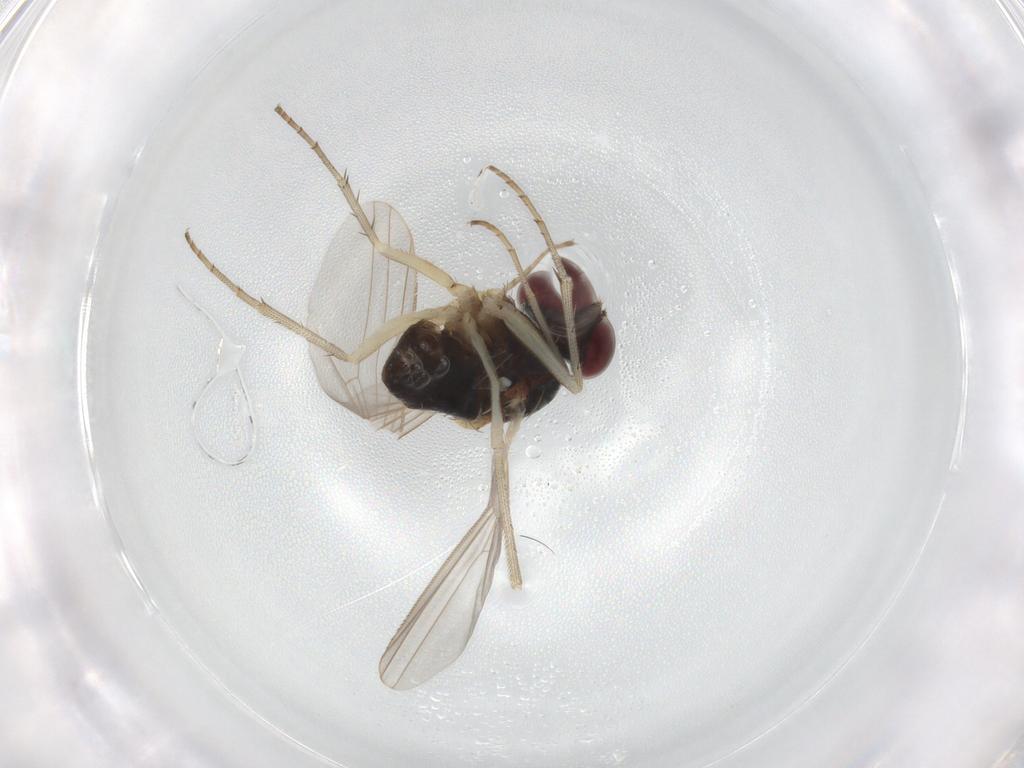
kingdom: Animalia
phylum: Arthropoda
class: Insecta
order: Diptera
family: Dolichopodidae
